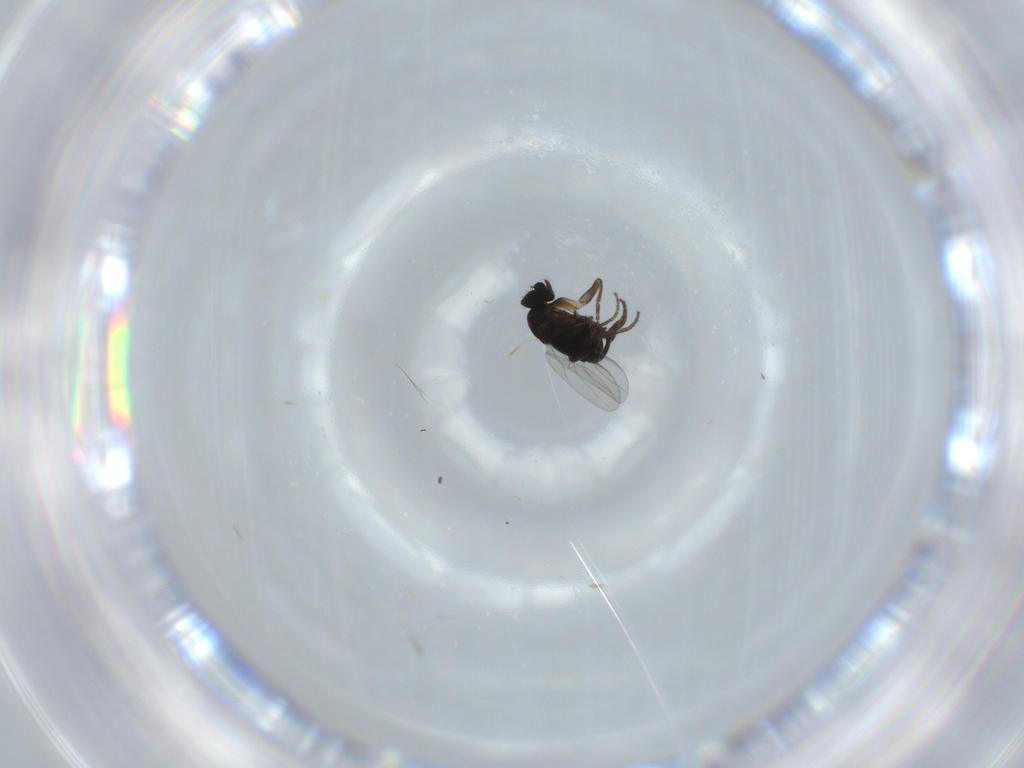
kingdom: Animalia
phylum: Arthropoda
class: Insecta
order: Diptera
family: Phoridae
